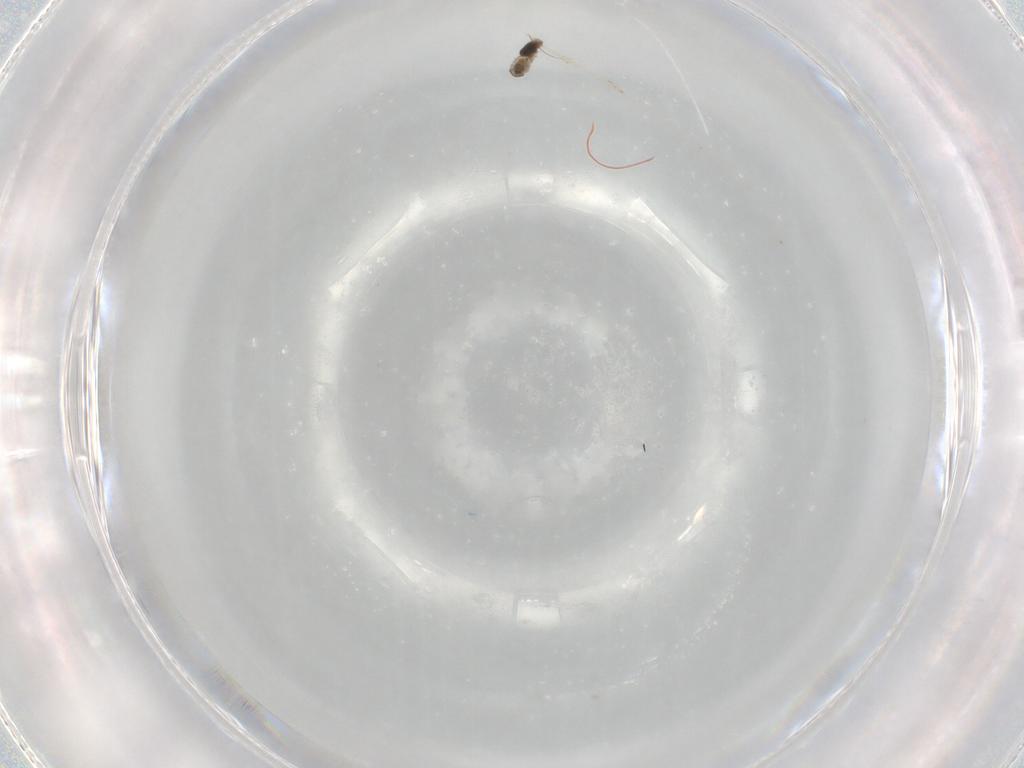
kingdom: Animalia
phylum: Arthropoda
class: Insecta
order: Diptera
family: Cecidomyiidae
